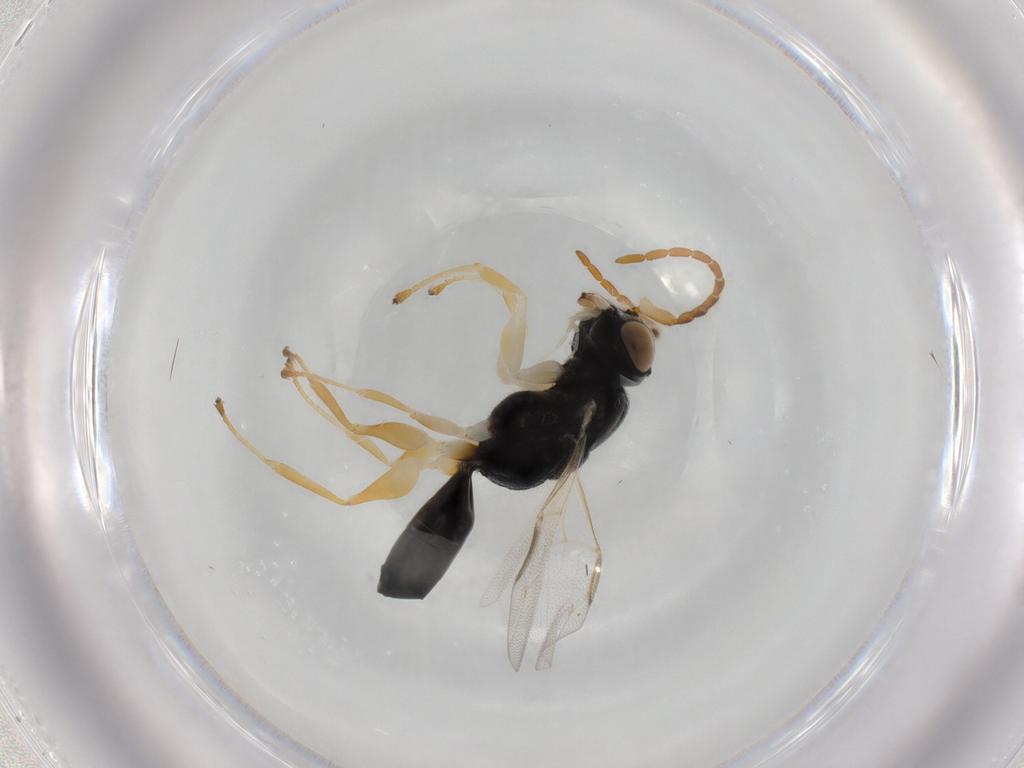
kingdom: Animalia
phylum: Arthropoda
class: Insecta
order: Hymenoptera
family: Dryinidae
